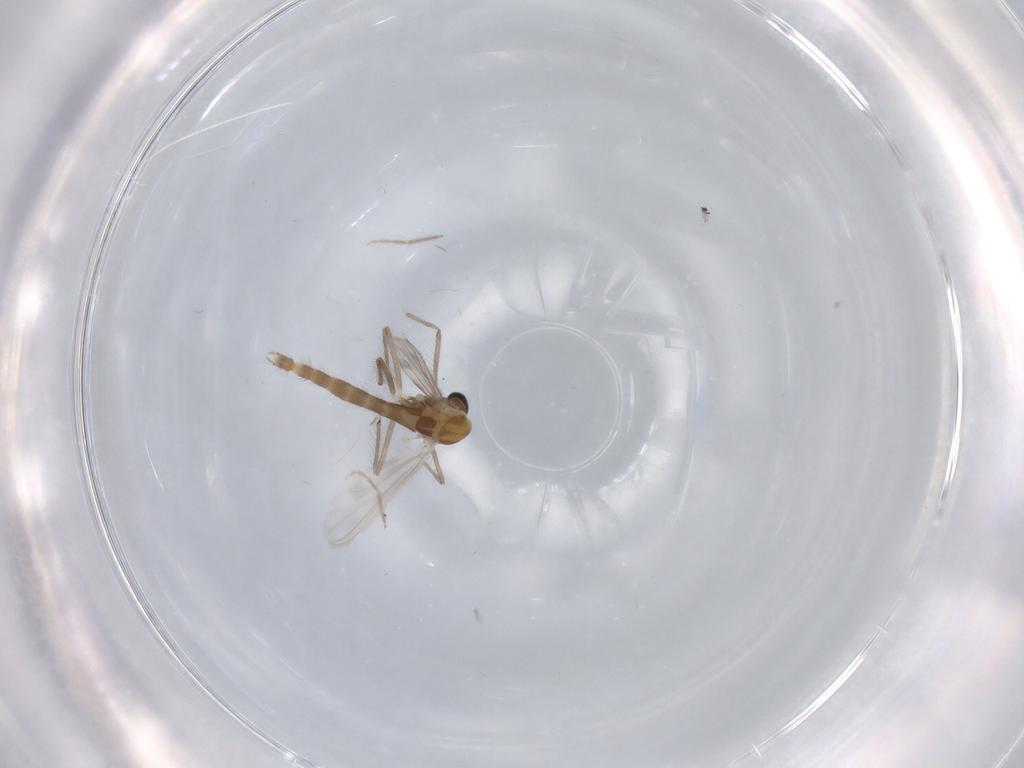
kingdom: Animalia
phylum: Arthropoda
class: Insecta
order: Diptera
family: Chironomidae
